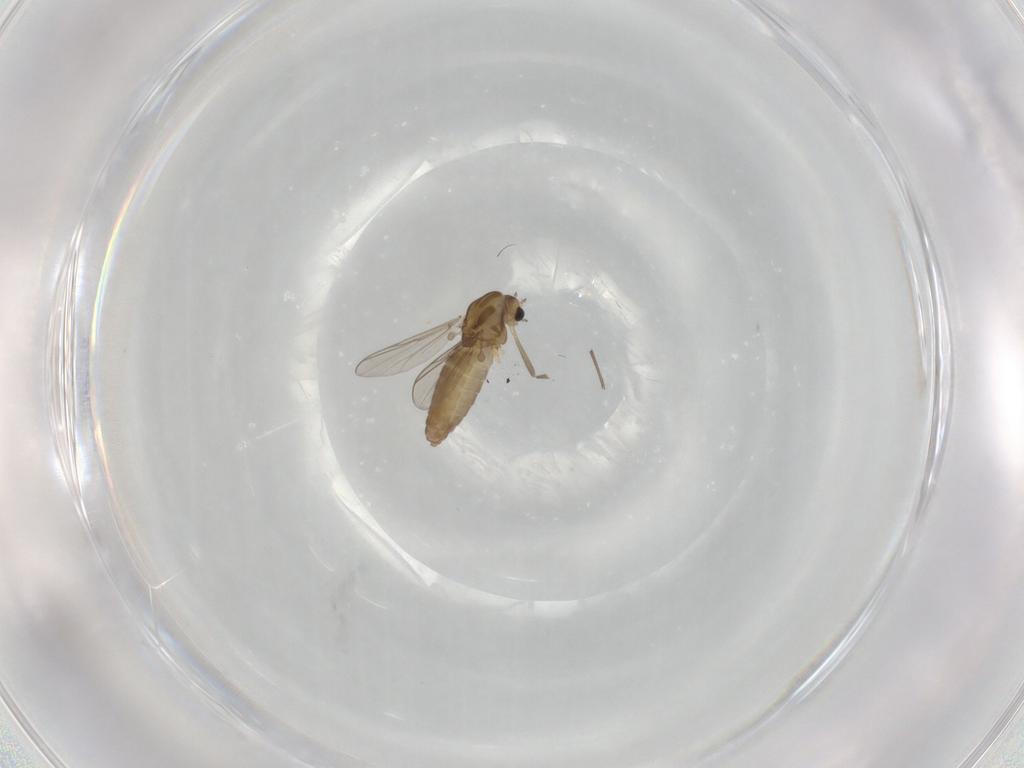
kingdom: Animalia
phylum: Arthropoda
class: Insecta
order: Diptera
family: Chironomidae
